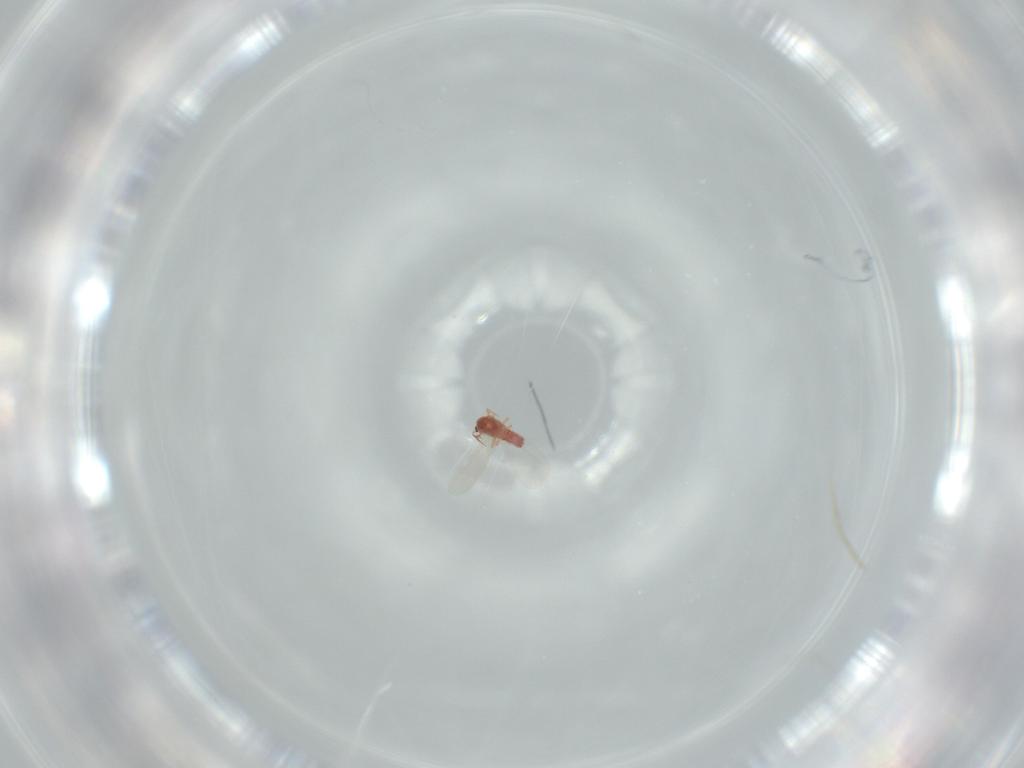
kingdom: Animalia
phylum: Arthropoda
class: Insecta
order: Diptera
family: Sciaridae
